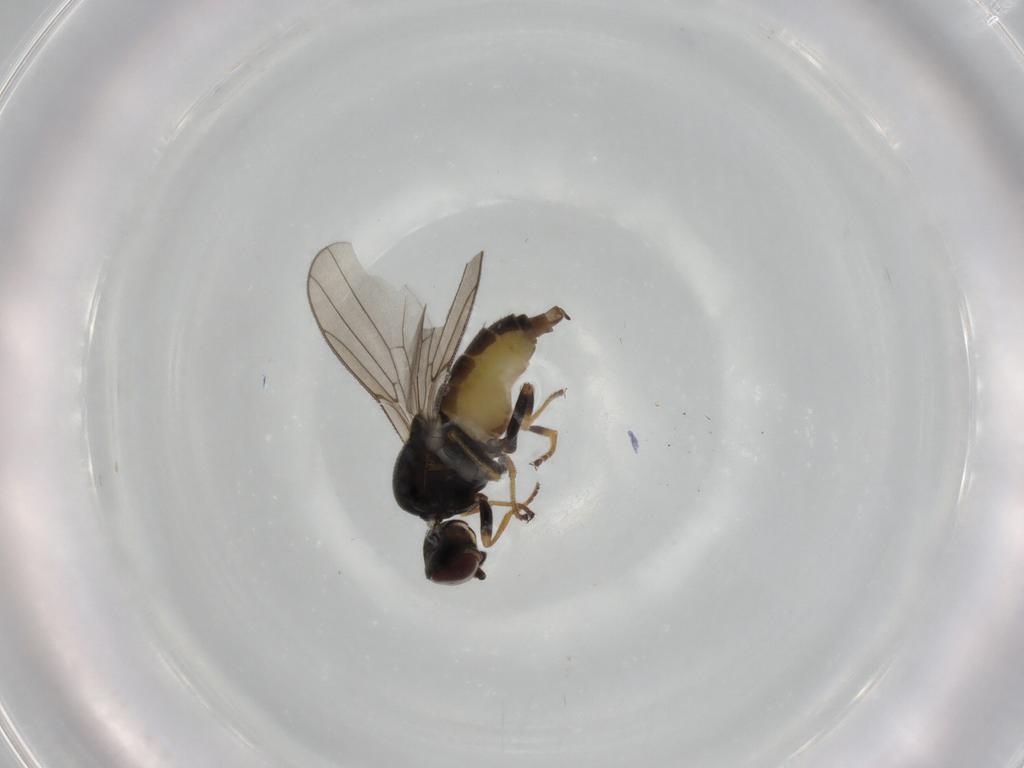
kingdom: Animalia
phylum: Arthropoda
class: Insecta
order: Diptera
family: Chloropidae
